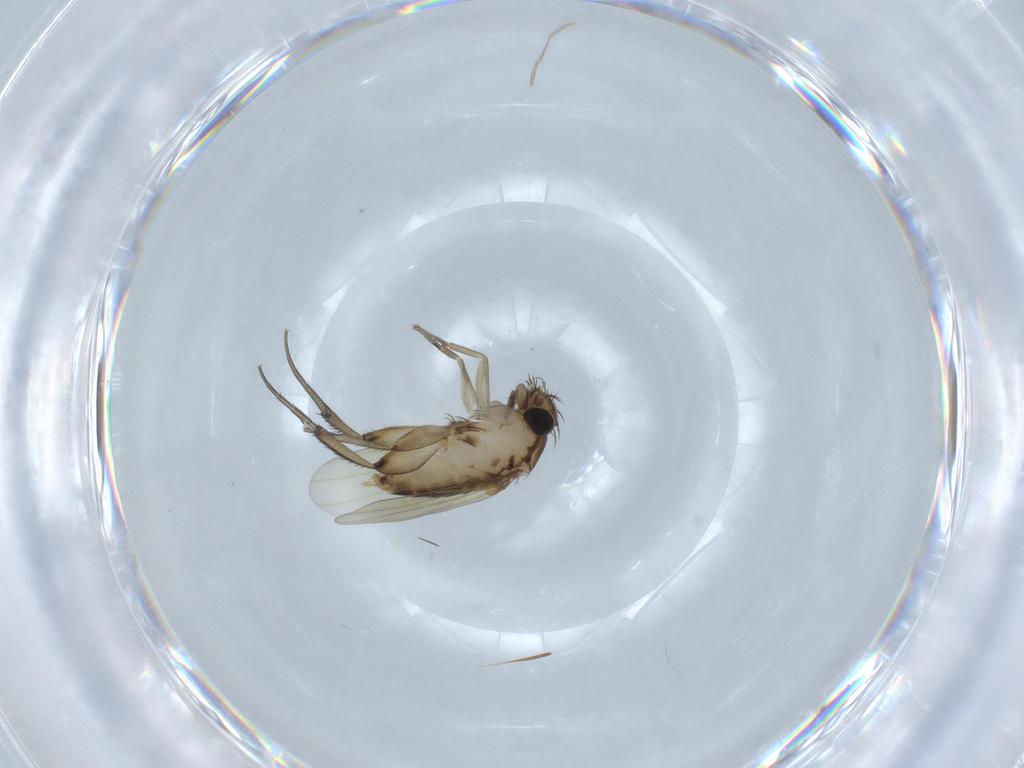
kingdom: Animalia
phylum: Arthropoda
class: Insecta
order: Diptera
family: Phoridae
